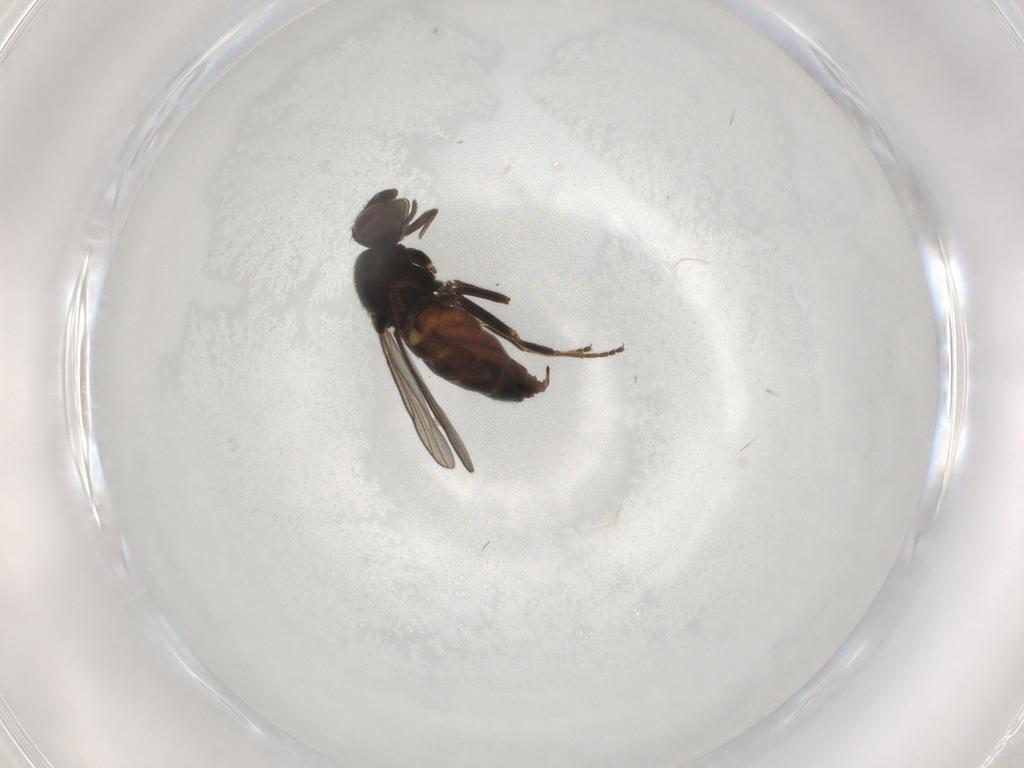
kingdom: Animalia
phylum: Arthropoda
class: Insecta
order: Diptera
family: Chloropidae
